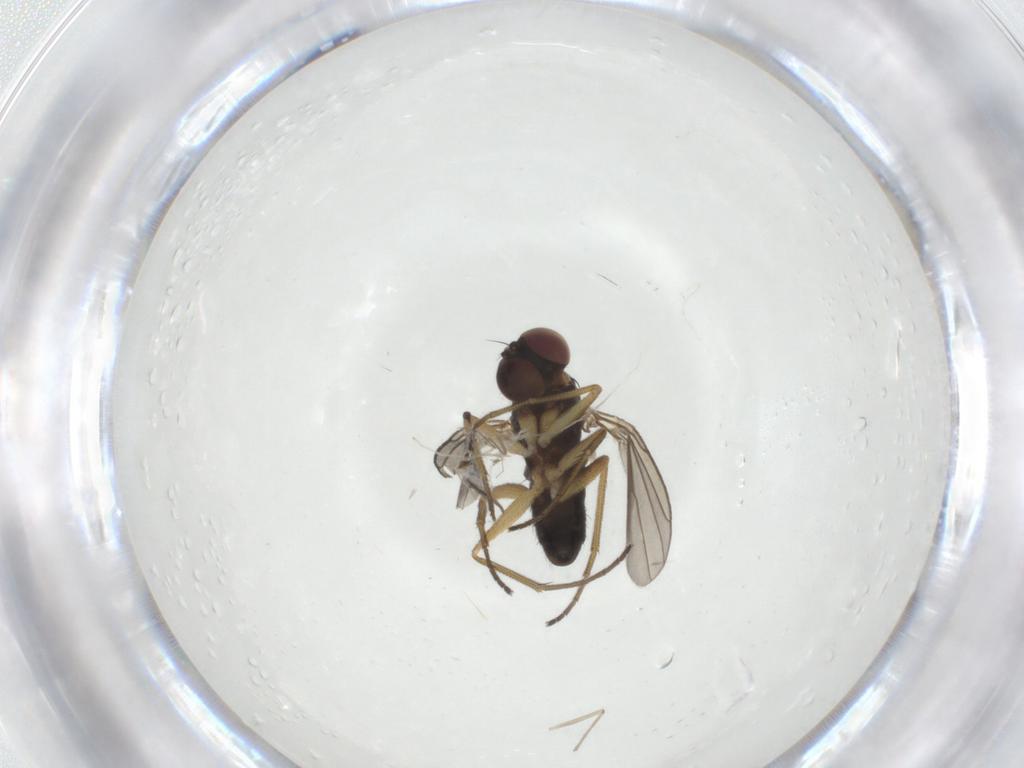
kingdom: Animalia
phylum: Arthropoda
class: Insecta
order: Diptera
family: Dolichopodidae
